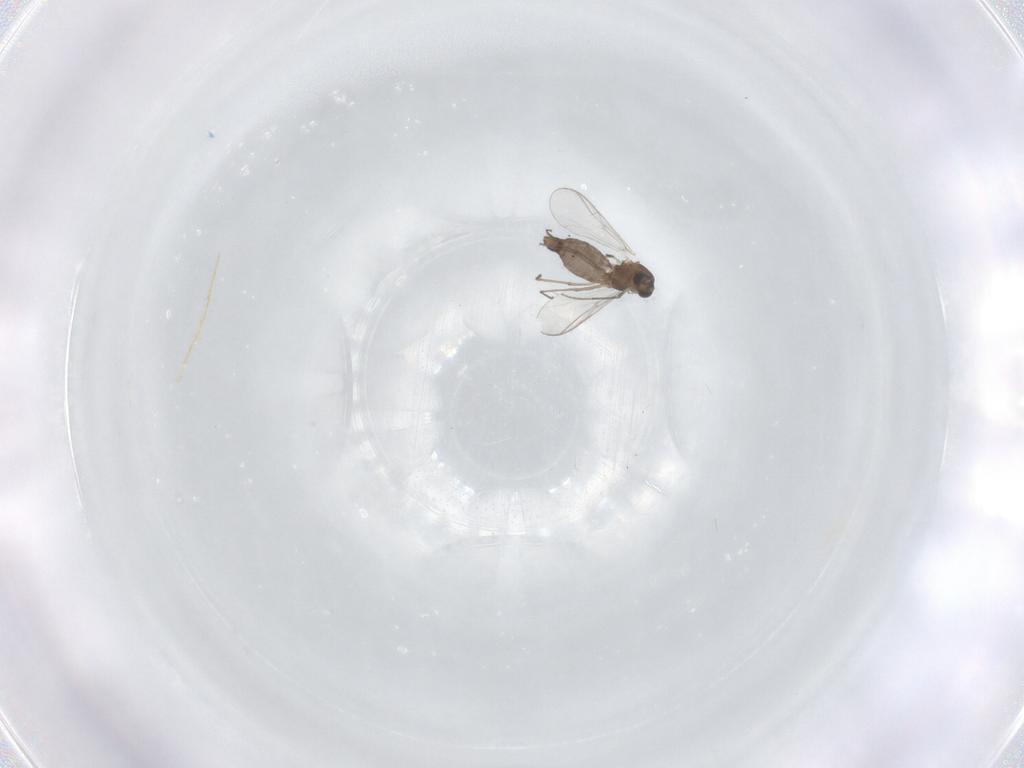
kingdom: Animalia
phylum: Arthropoda
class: Insecta
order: Diptera
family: Chironomidae
